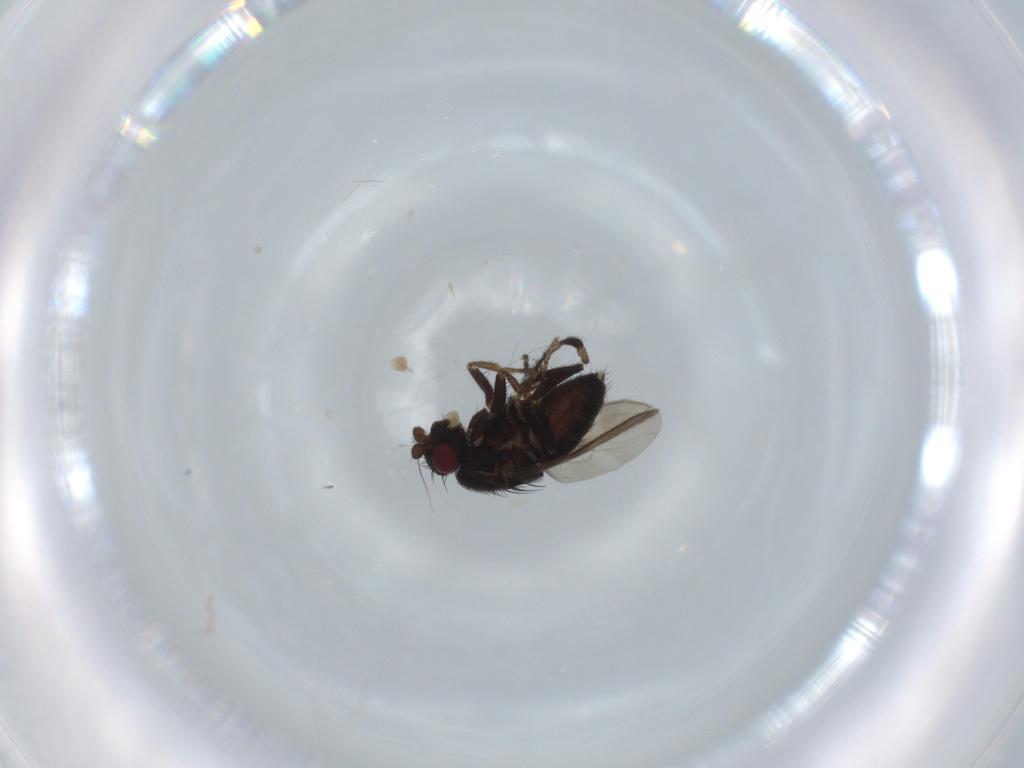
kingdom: Animalia
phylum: Arthropoda
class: Insecta
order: Diptera
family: Sphaeroceridae
